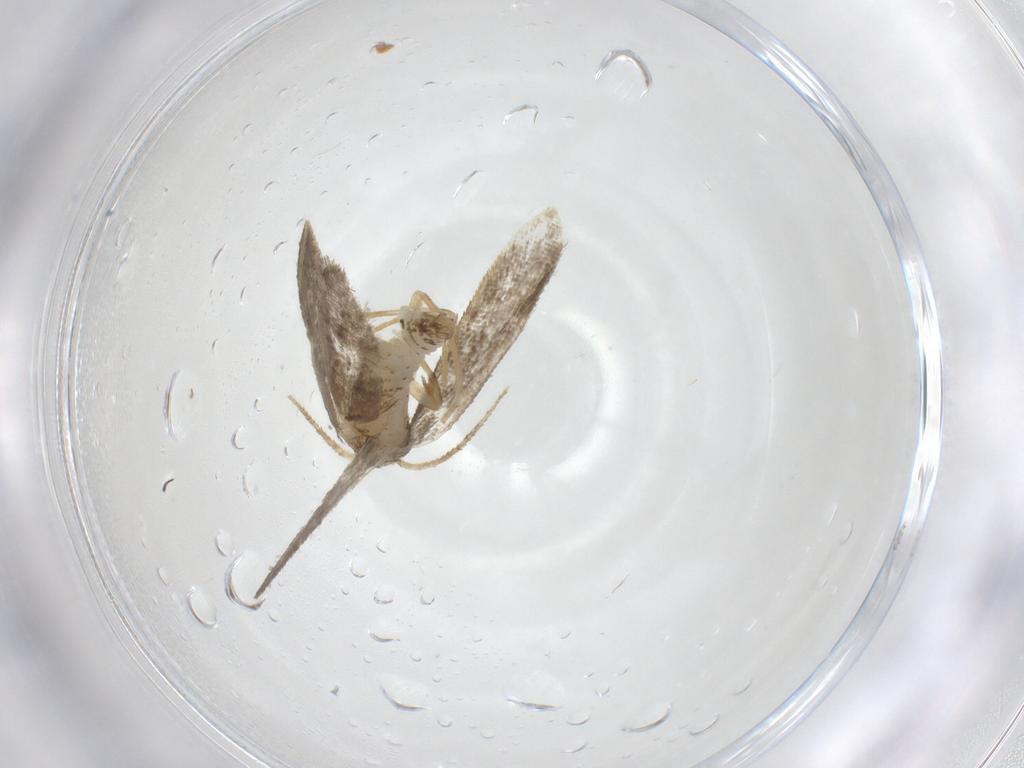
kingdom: Animalia
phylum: Arthropoda
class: Insecta
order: Lepidoptera
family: Psychidae
